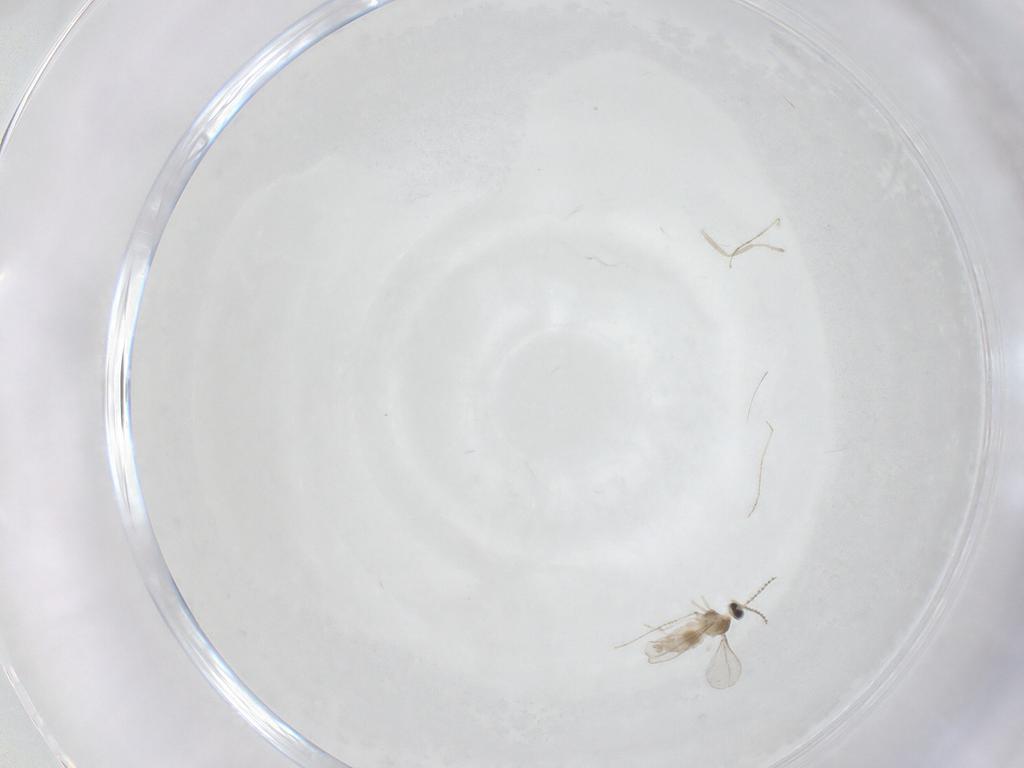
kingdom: Animalia
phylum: Arthropoda
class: Insecta
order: Diptera
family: Cecidomyiidae
